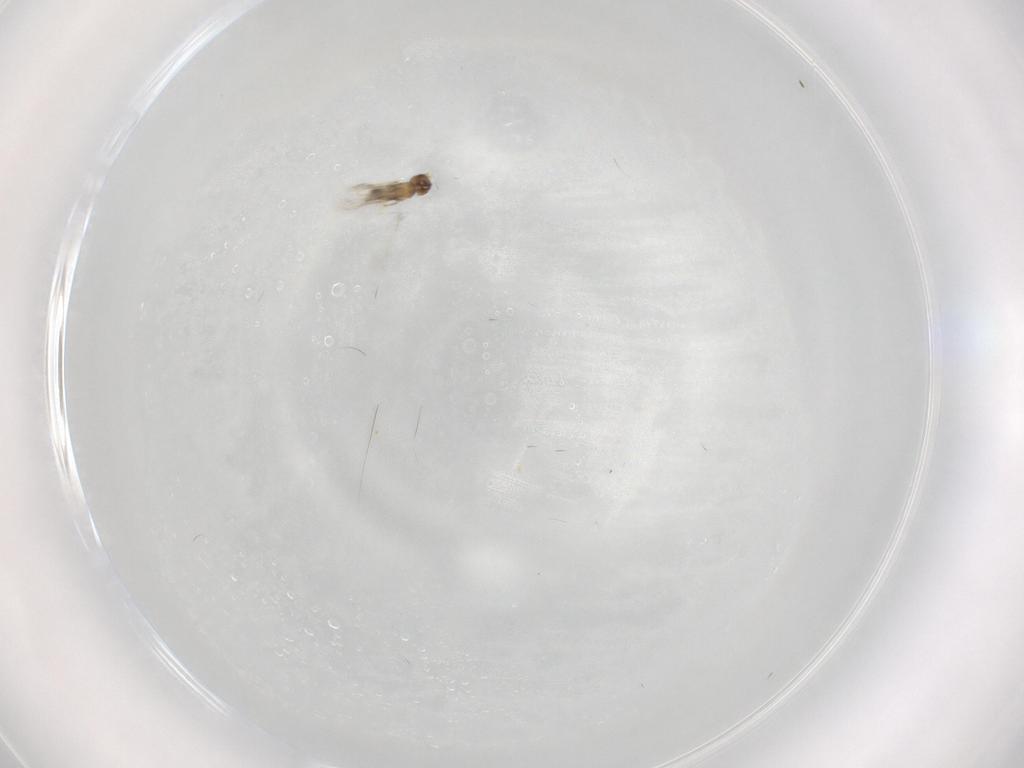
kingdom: Animalia
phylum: Arthropoda
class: Insecta
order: Hymenoptera
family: Mymaridae
